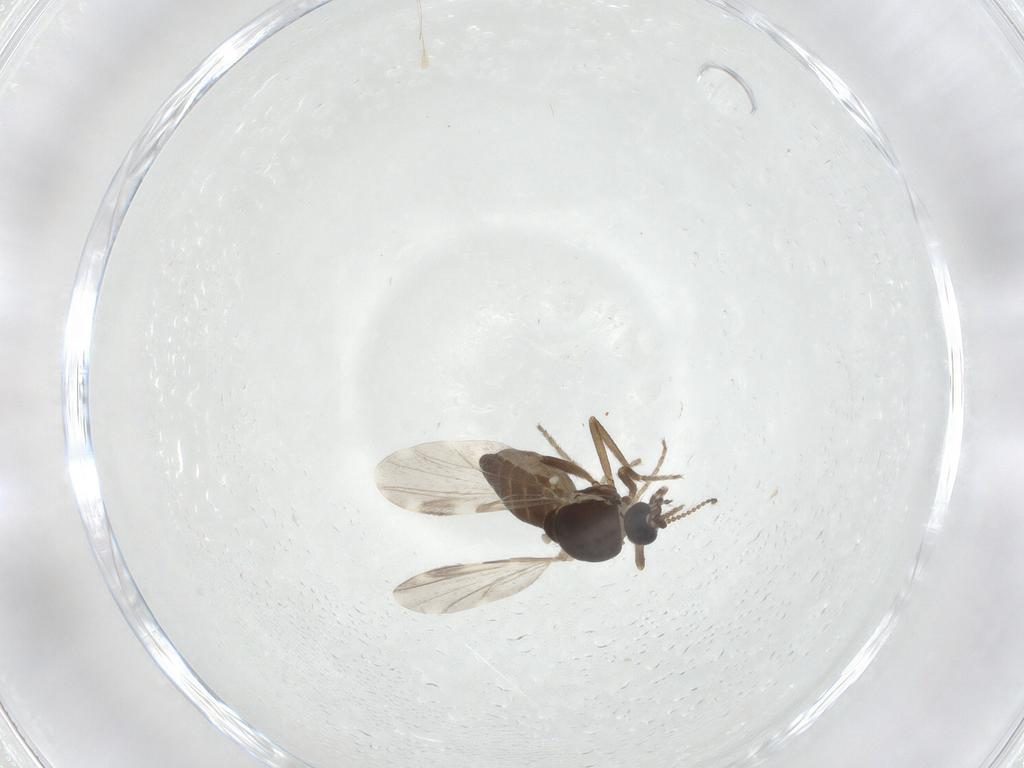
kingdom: Animalia
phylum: Arthropoda
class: Insecta
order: Diptera
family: Ceratopogonidae
